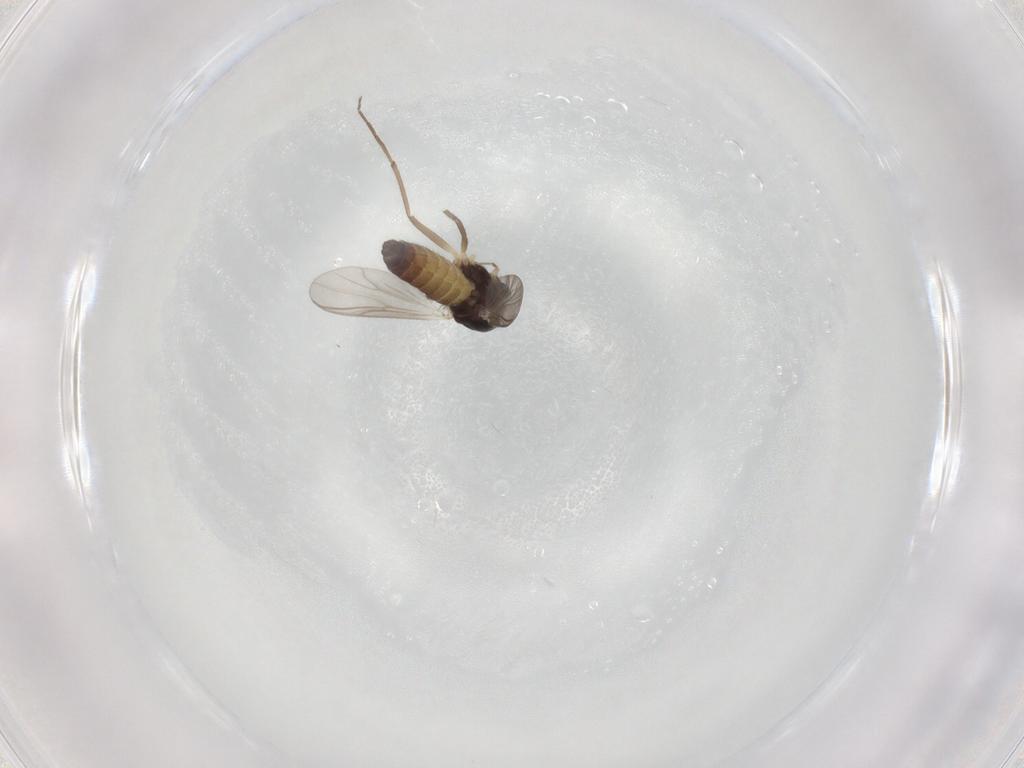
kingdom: Animalia
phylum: Arthropoda
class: Insecta
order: Diptera
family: Chironomidae
